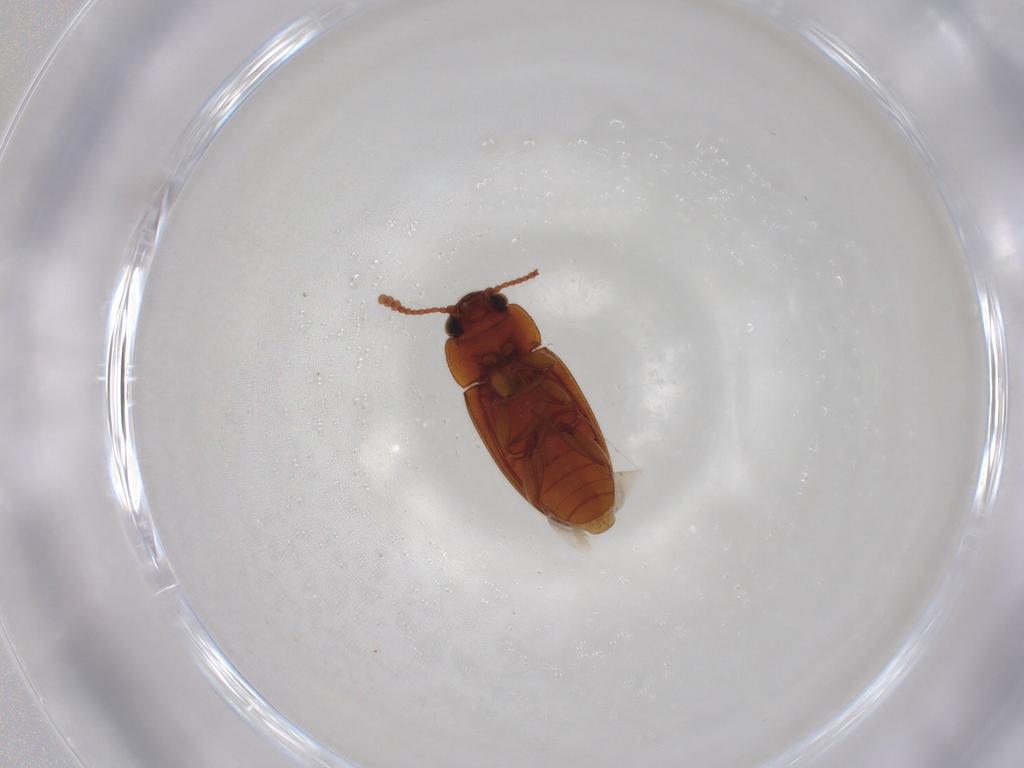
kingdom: Animalia
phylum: Arthropoda
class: Insecta
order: Coleoptera
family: Erotylidae
